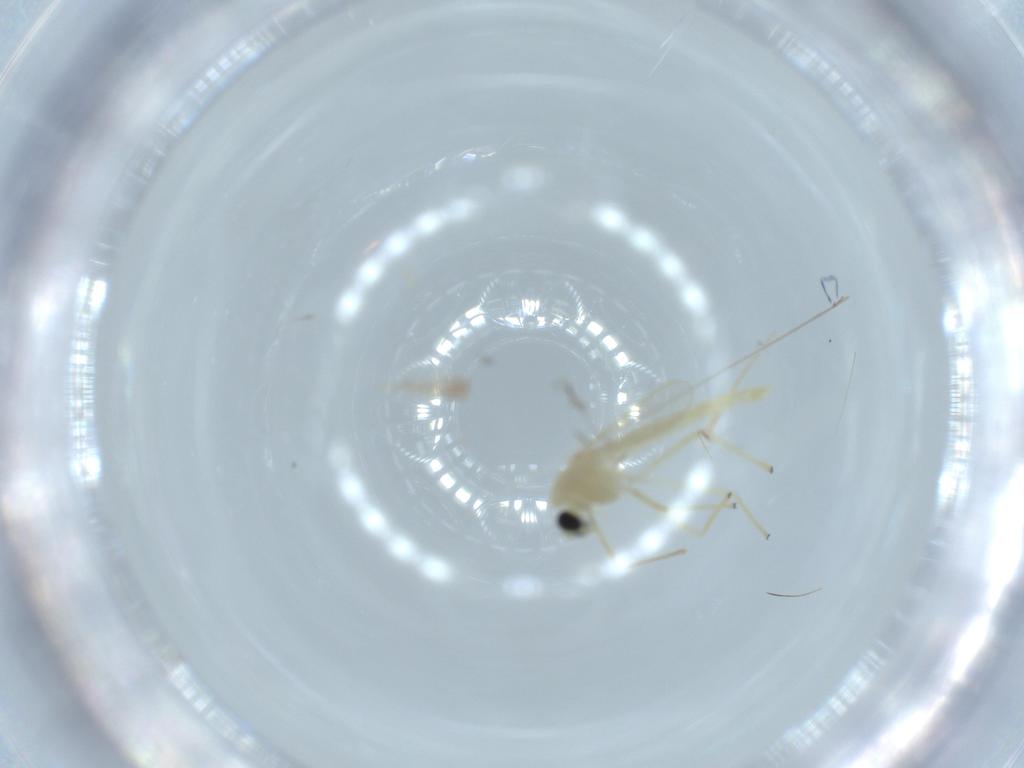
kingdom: Animalia
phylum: Arthropoda
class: Insecta
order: Diptera
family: Chironomidae
